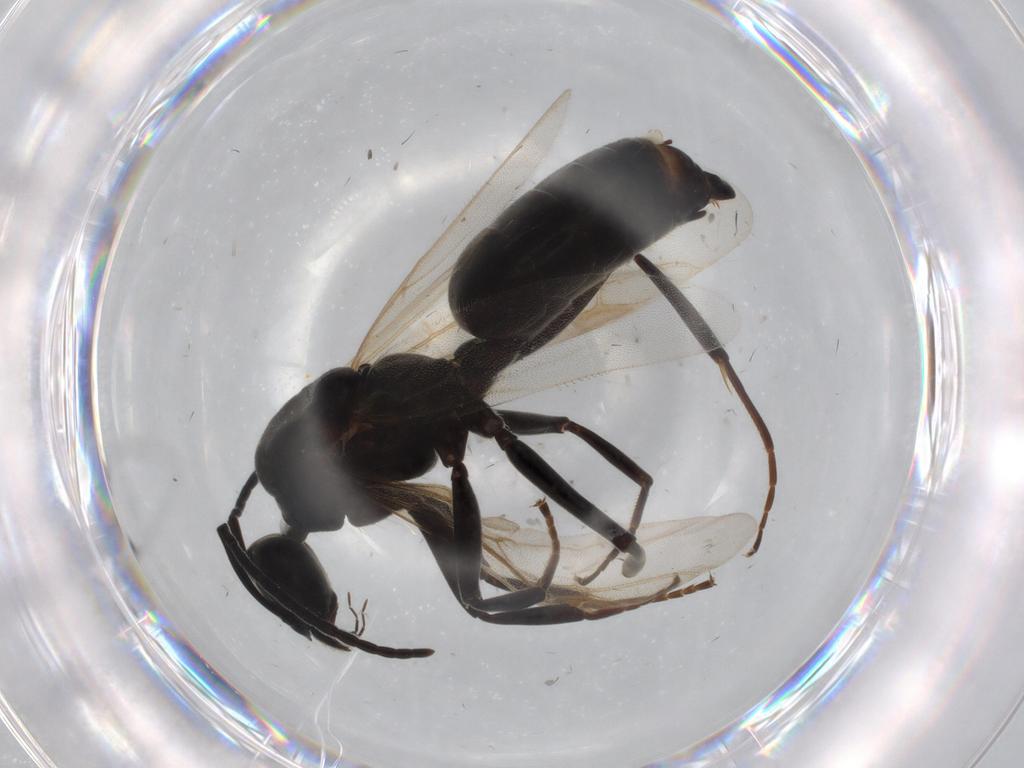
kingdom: Animalia
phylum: Arthropoda
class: Insecta
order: Hymenoptera
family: Formicidae
